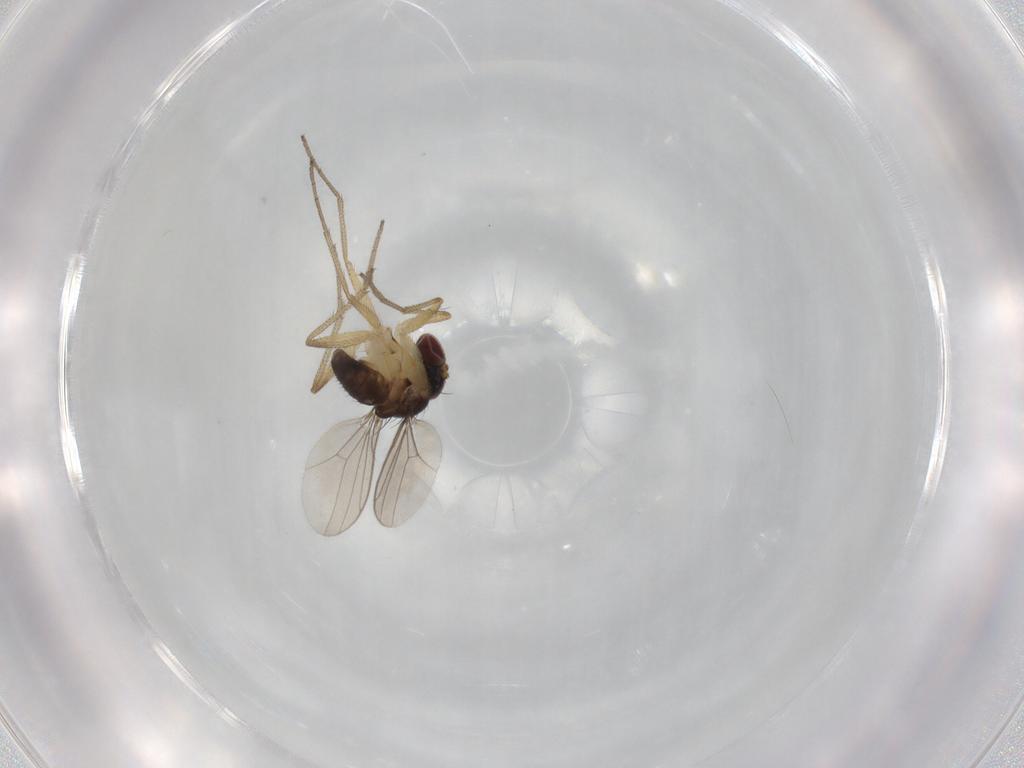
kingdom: Animalia
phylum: Arthropoda
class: Insecta
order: Diptera
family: Dolichopodidae
